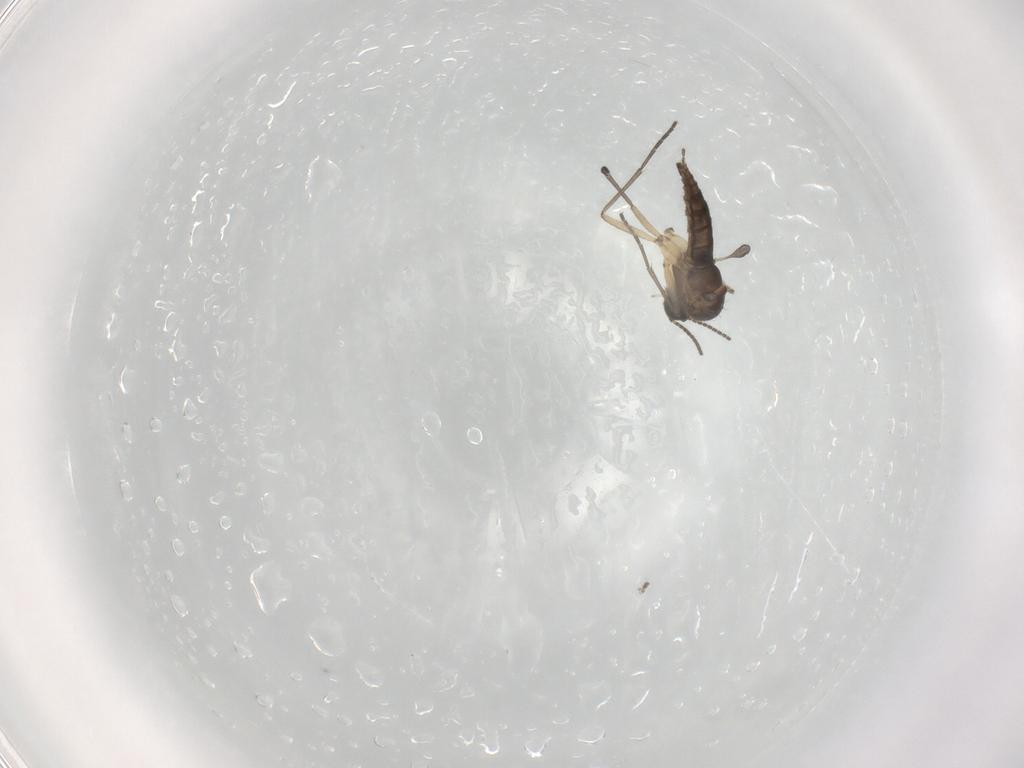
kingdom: Animalia
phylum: Arthropoda
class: Insecta
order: Diptera
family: Sciaridae
